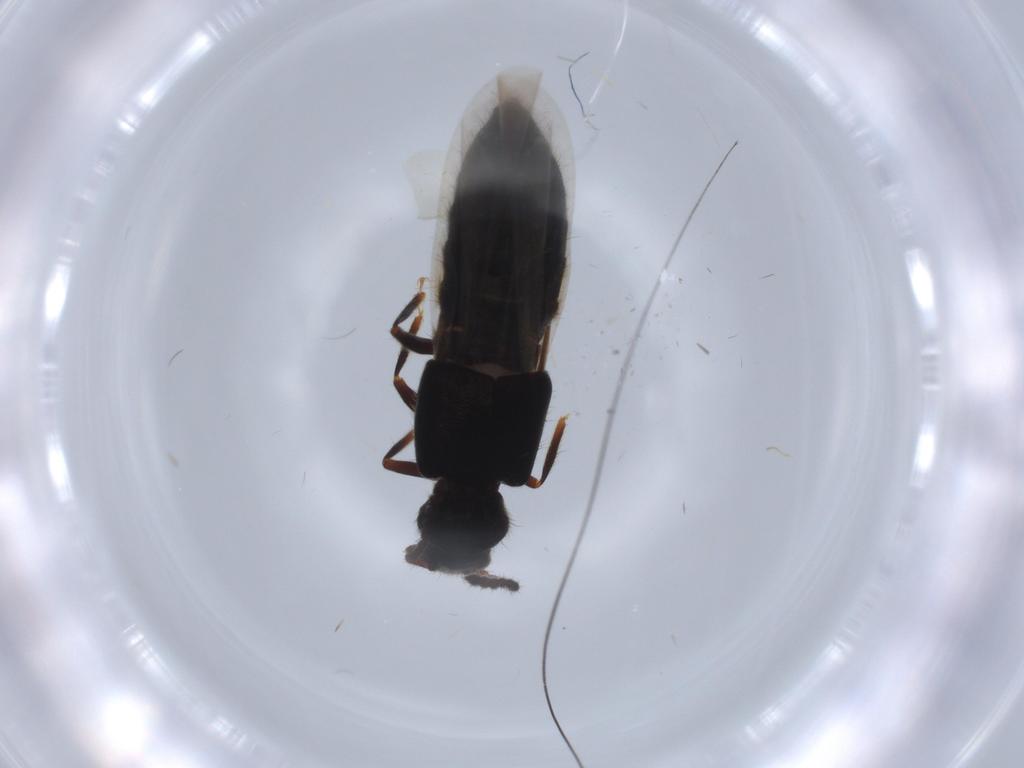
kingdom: Animalia
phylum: Arthropoda
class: Insecta
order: Coleoptera
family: Staphylinidae
